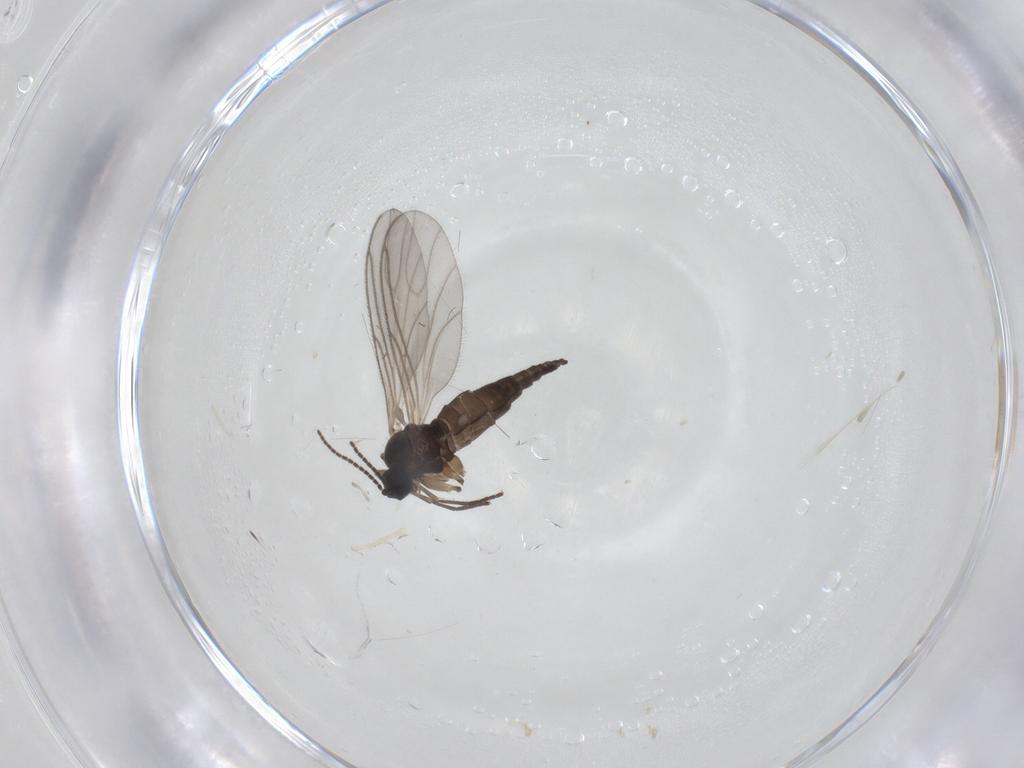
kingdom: Animalia
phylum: Arthropoda
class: Insecta
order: Diptera
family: Sciaridae
